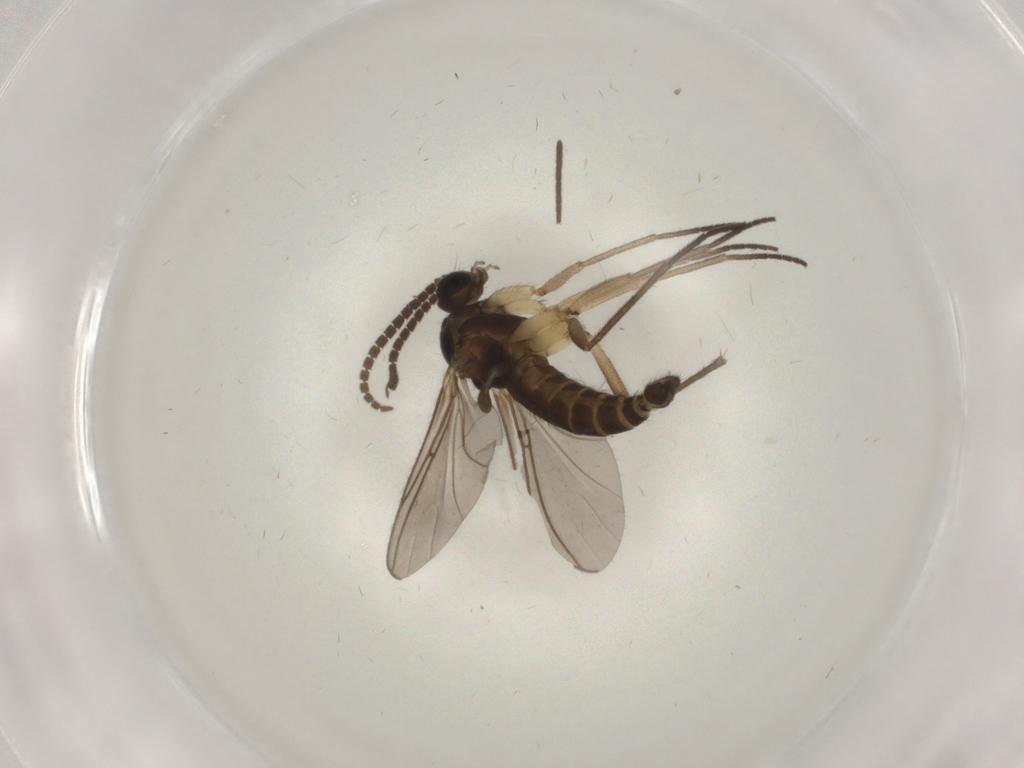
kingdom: Animalia
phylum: Arthropoda
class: Insecta
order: Diptera
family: Sciaridae
